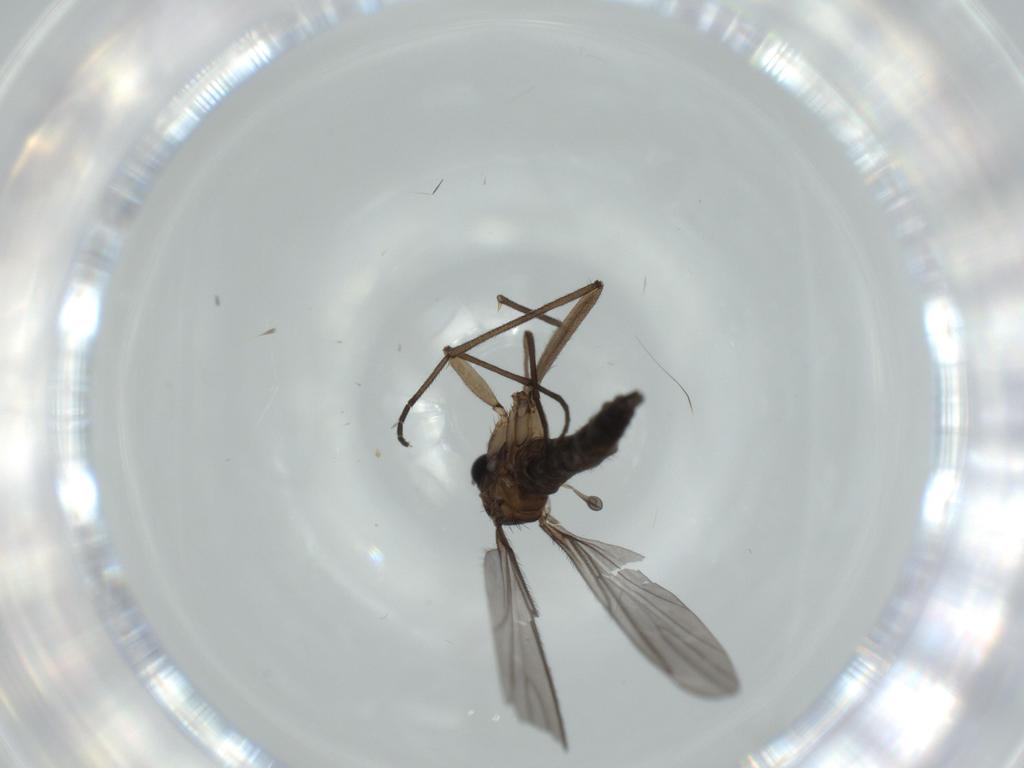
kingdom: Animalia
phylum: Arthropoda
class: Insecta
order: Diptera
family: Sciaridae
